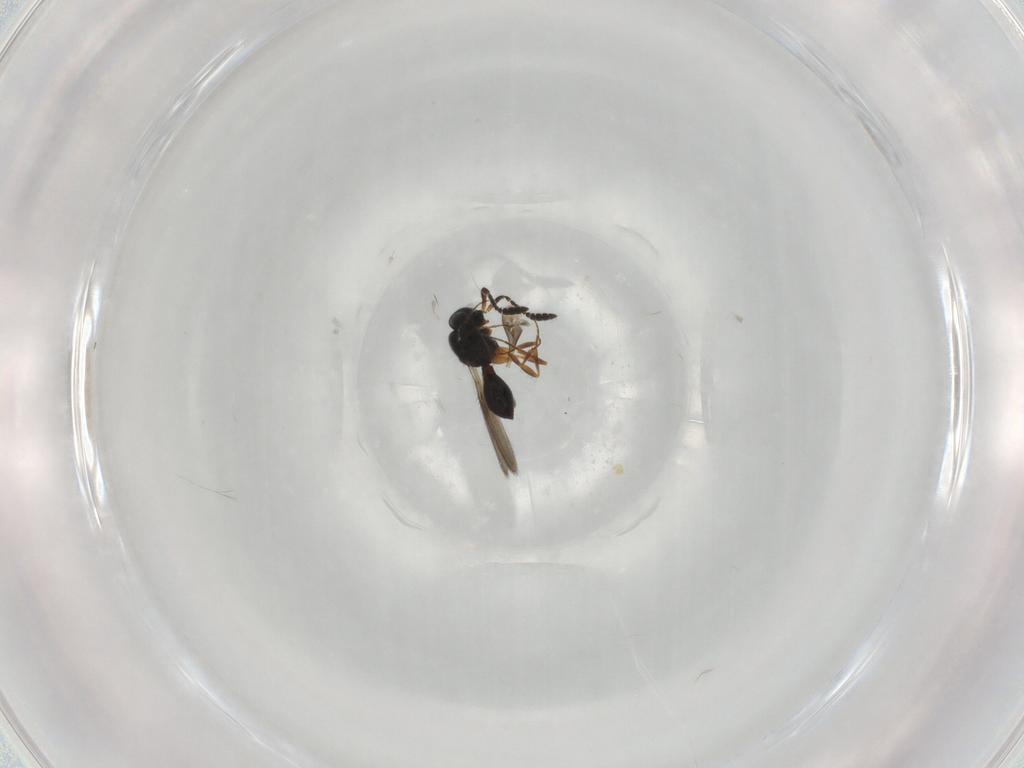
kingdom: Animalia
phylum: Arthropoda
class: Insecta
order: Hymenoptera
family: Scelionidae
